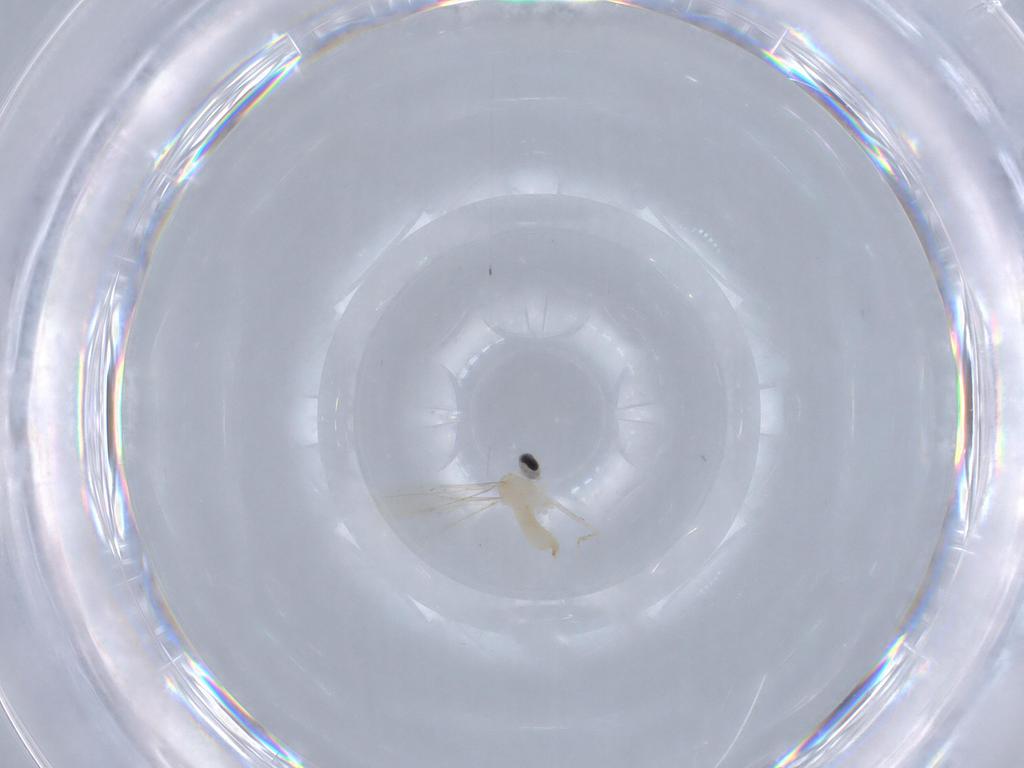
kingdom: Animalia
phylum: Arthropoda
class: Insecta
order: Diptera
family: Cecidomyiidae
